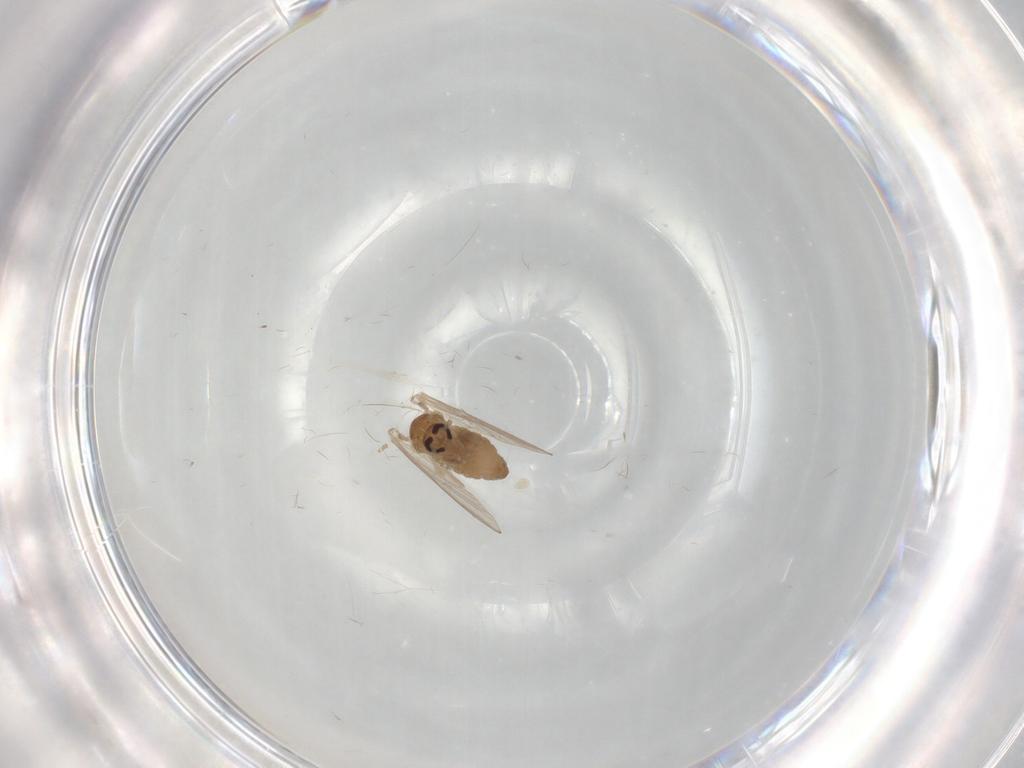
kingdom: Animalia
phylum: Arthropoda
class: Insecta
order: Diptera
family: Psychodidae
